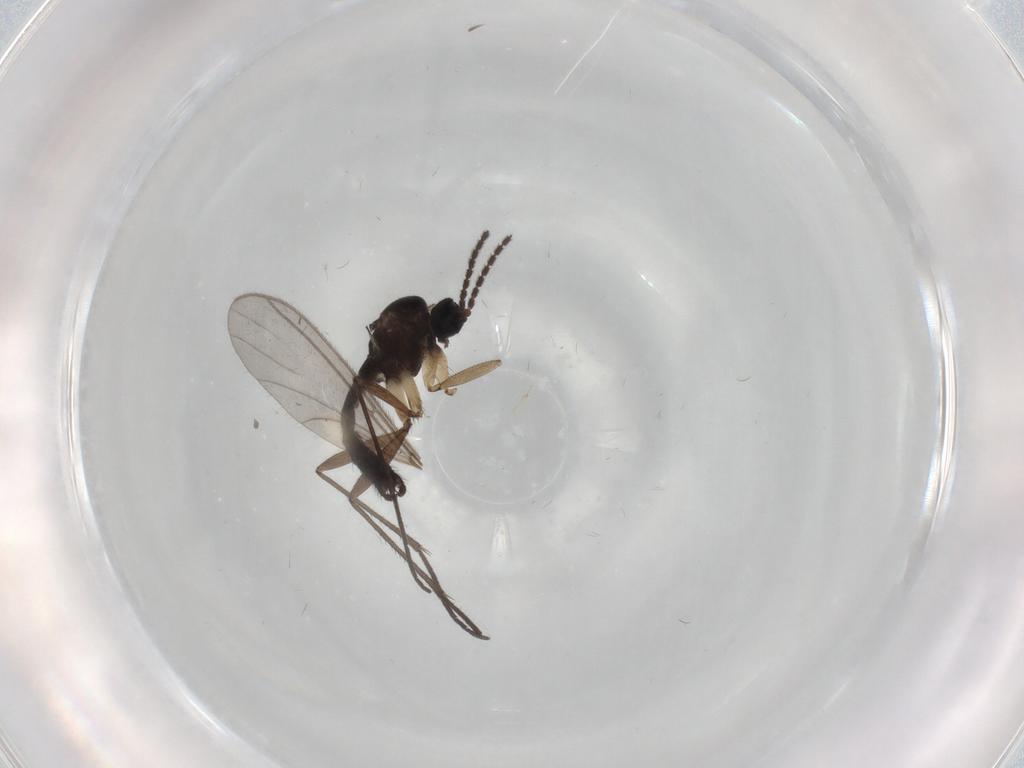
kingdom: Animalia
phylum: Arthropoda
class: Insecta
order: Diptera
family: Sciaridae
